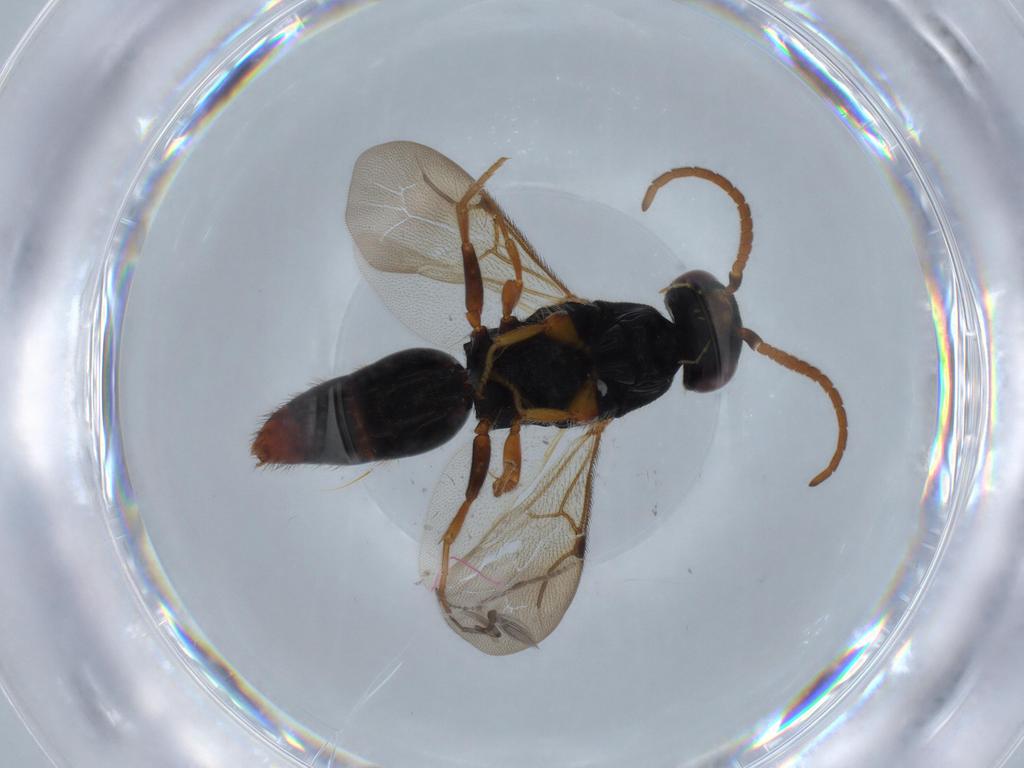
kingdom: Animalia
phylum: Arthropoda
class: Insecta
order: Hymenoptera
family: Bethylidae
